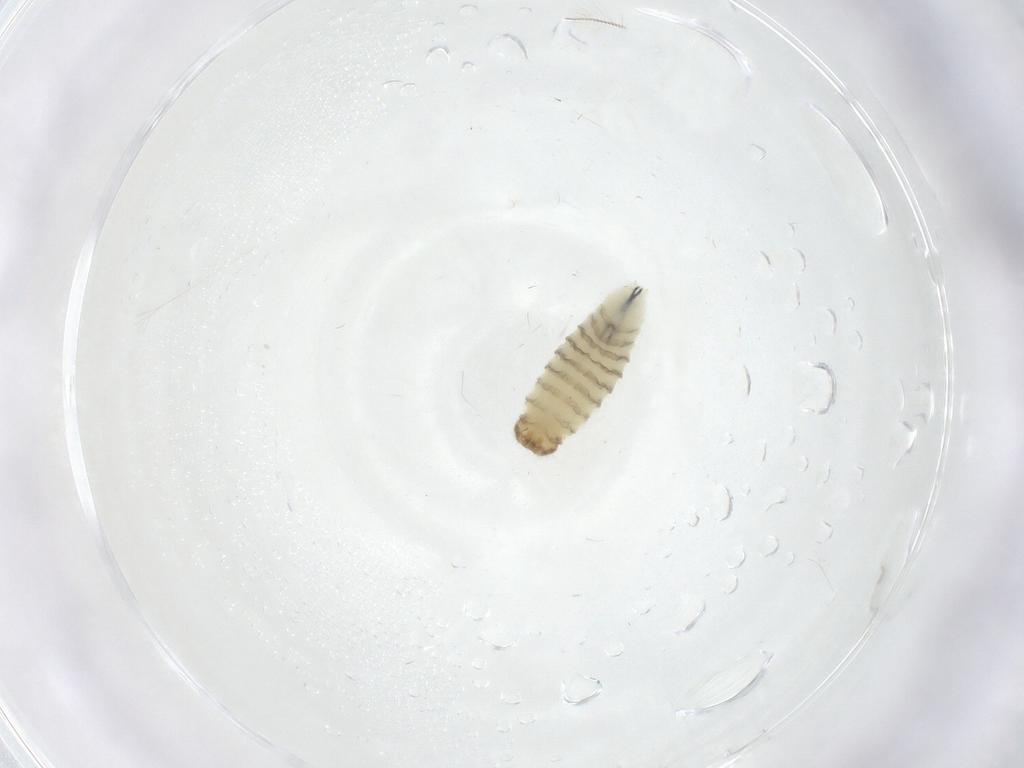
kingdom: Animalia
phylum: Arthropoda
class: Insecta
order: Diptera
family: Sarcophagidae
